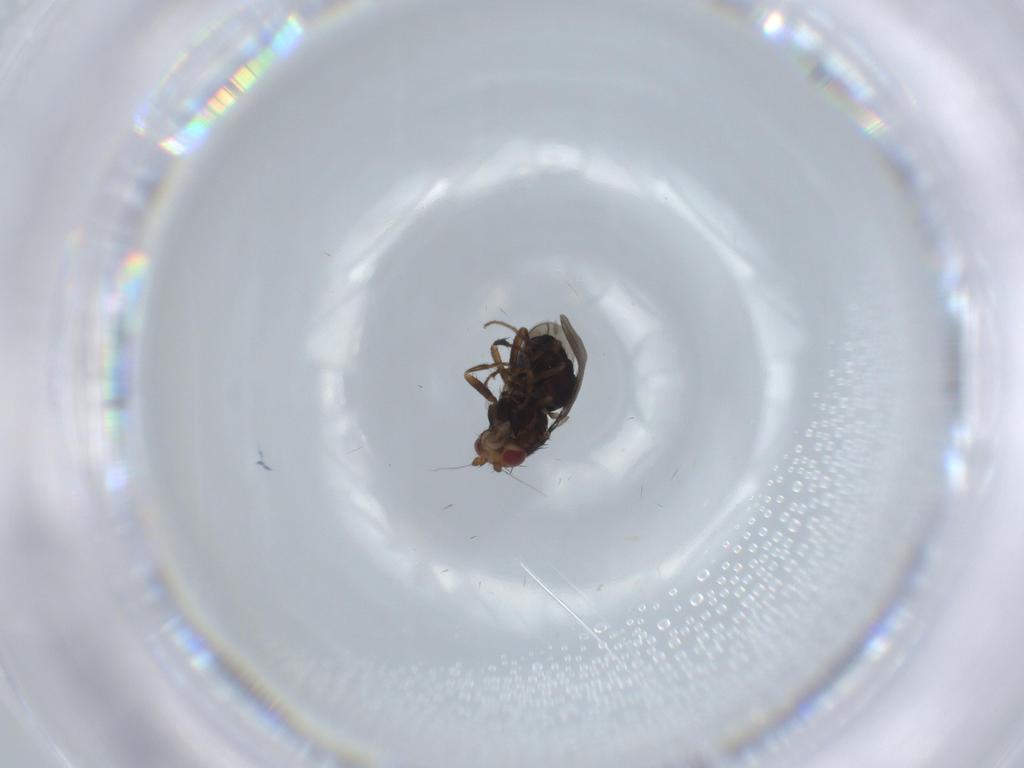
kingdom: Animalia
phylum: Arthropoda
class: Insecta
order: Diptera
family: Sphaeroceridae
